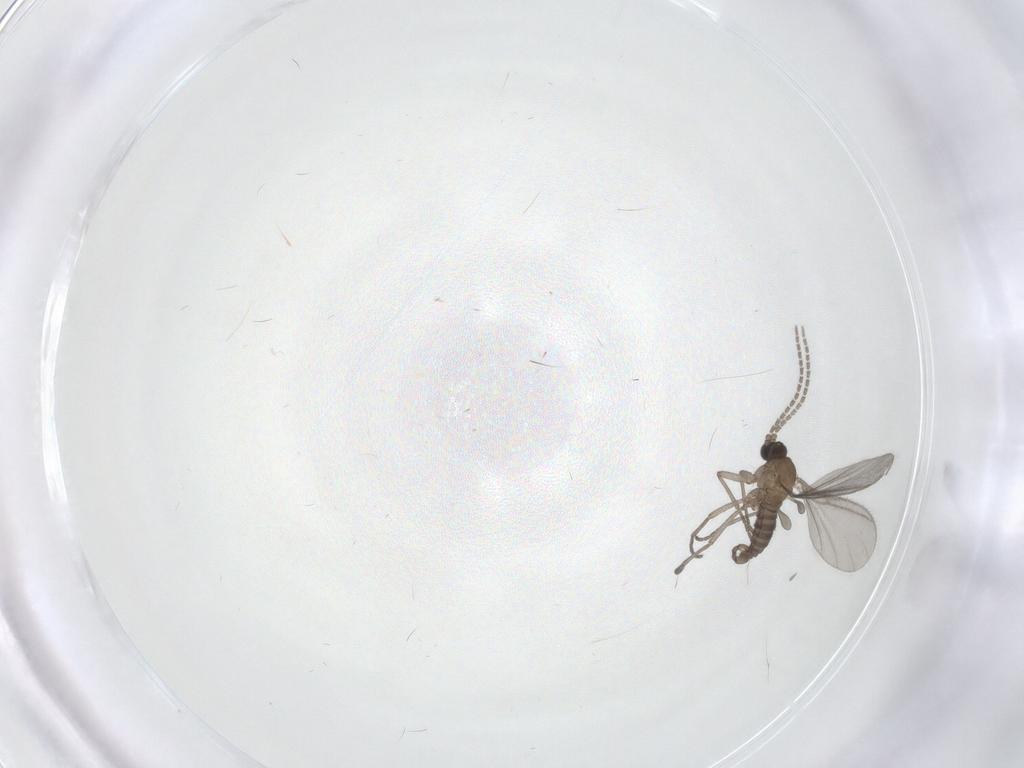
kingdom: Animalia
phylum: Arthropoda
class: Insecta
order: Diptera
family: Sciaridae
